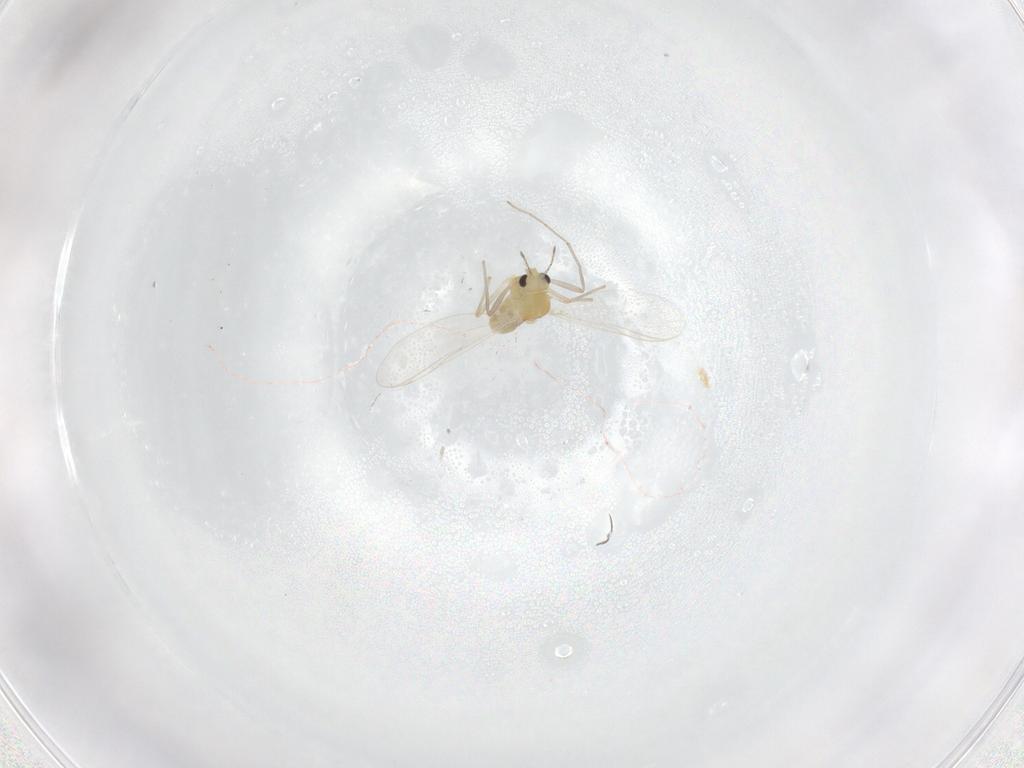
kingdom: Animalia
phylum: Arthropoda
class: Insecta
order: Diptera
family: Chironomidae
